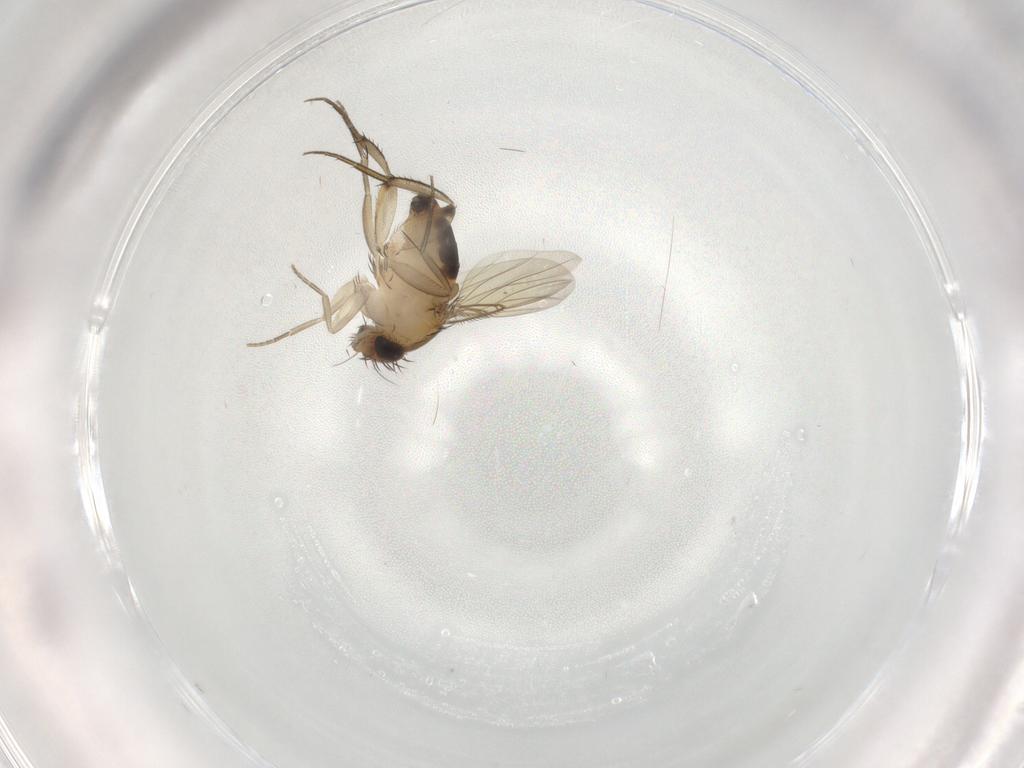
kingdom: Animalia
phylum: Arthropoda
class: Insecta
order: Diptera
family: Phoridae
